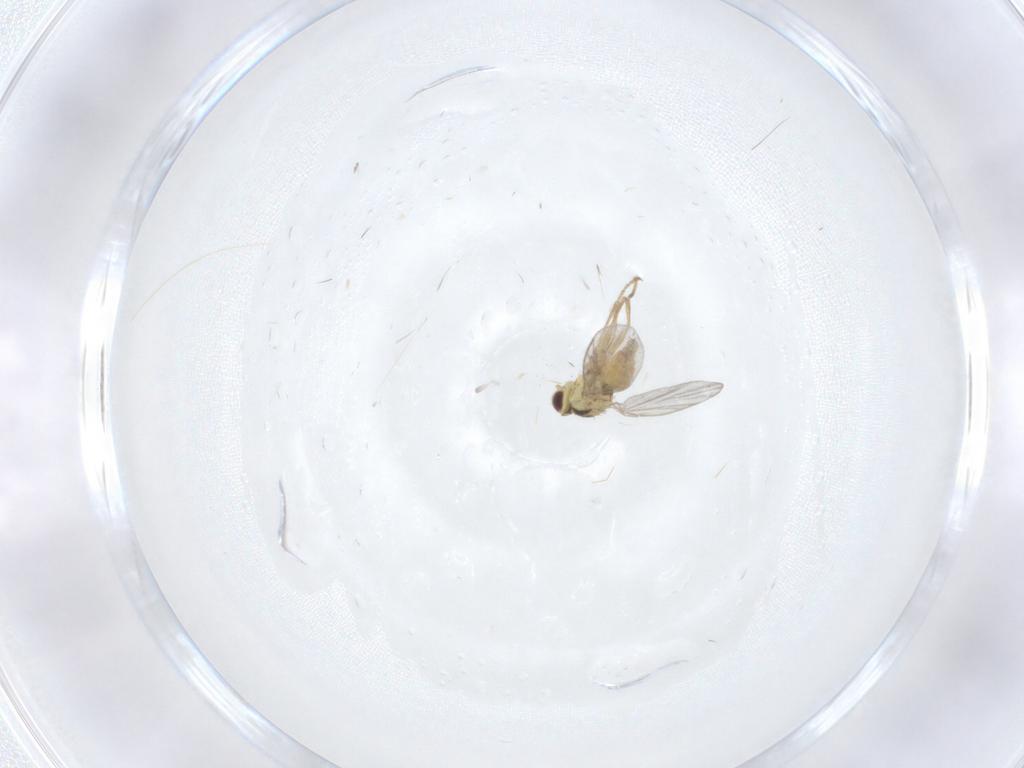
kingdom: Animalia
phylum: Arthropoda
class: Insecta
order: Diptera
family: Agromyzidae
